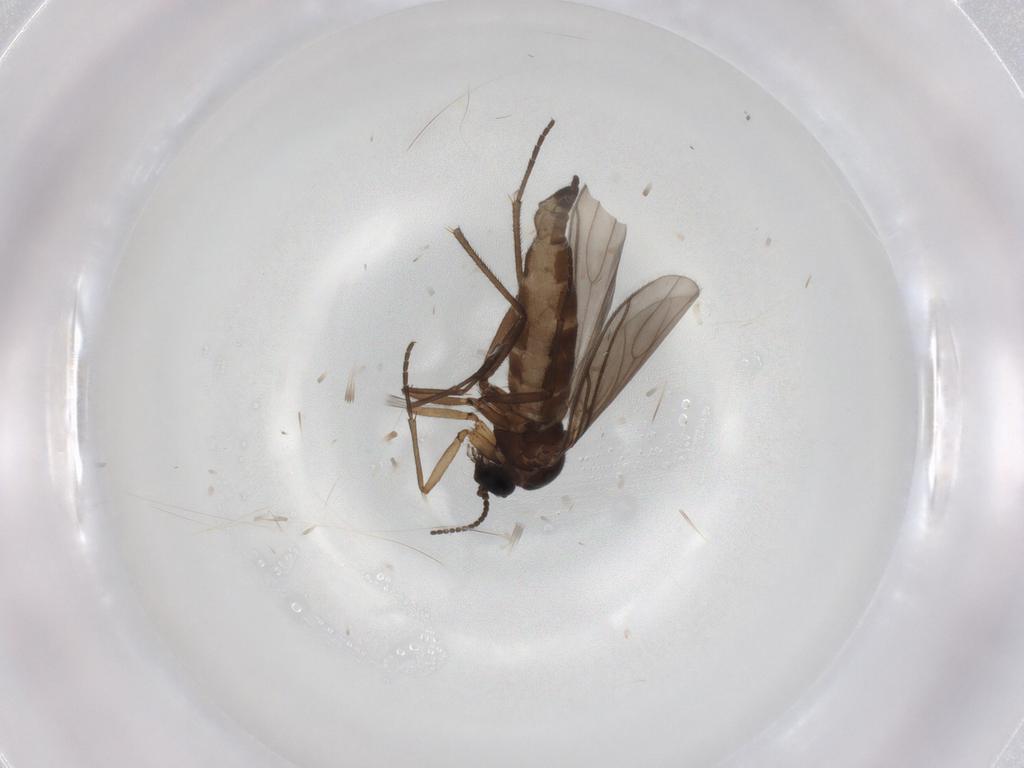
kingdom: Animalia
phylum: Arthropoda
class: Insecta
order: Diptera
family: Sciaridae
